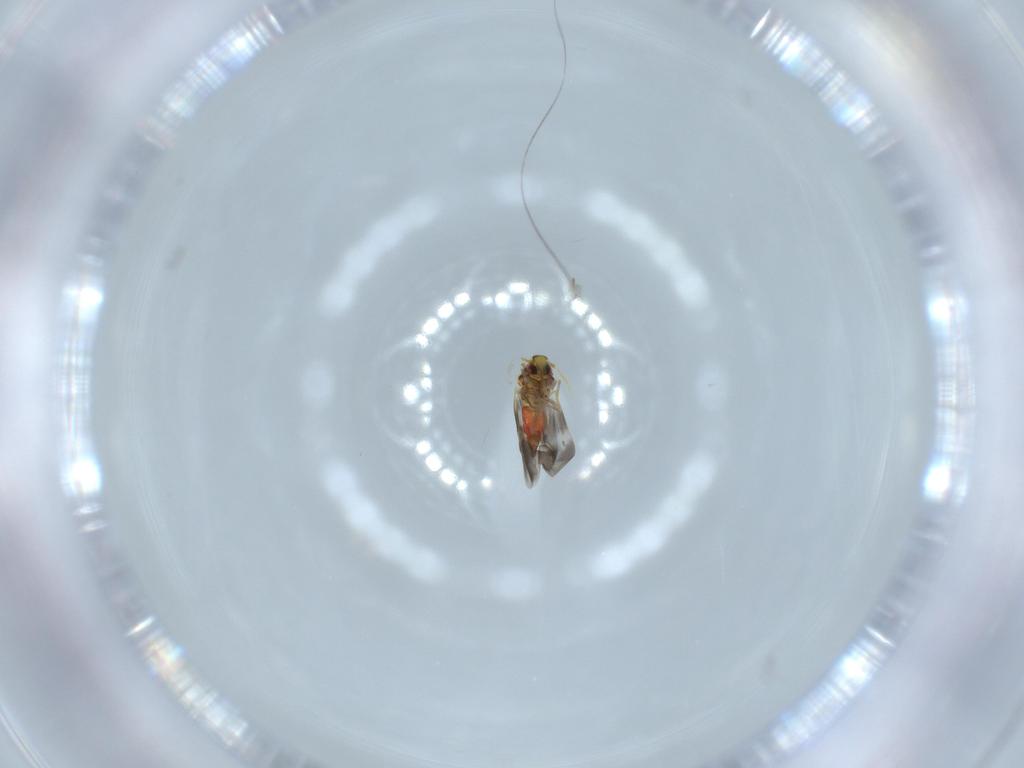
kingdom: Animalia
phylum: Arthropoda
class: Insecta
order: Hemiptera
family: Aleyrodidae
